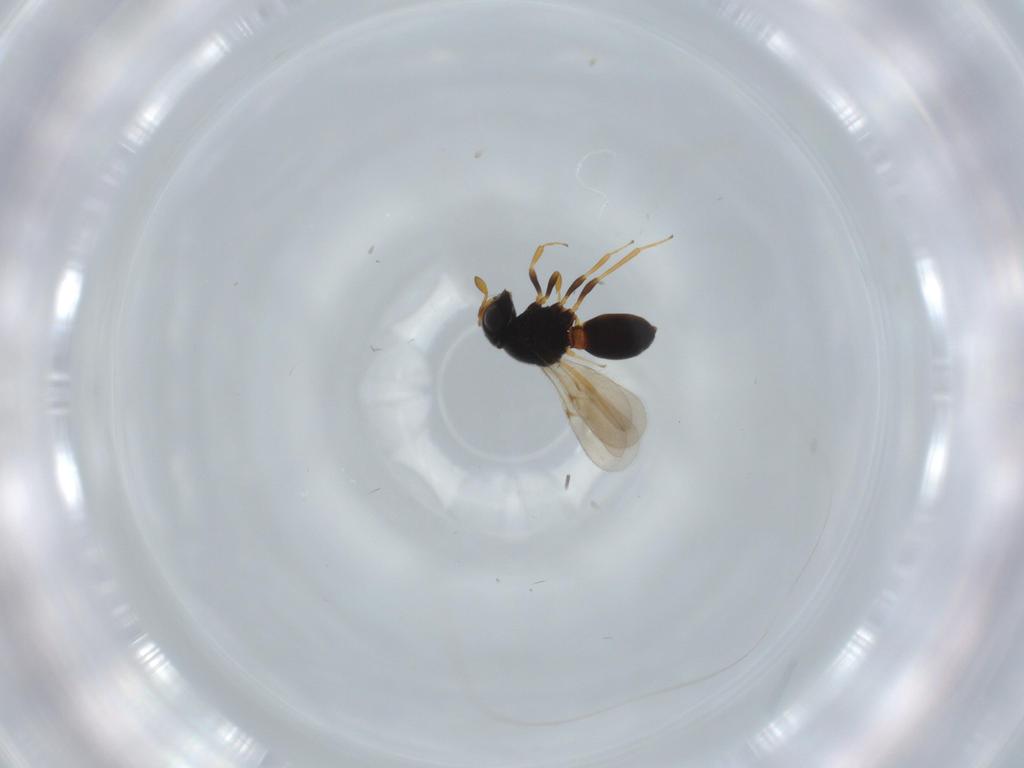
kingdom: Animalia
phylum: Arthropoda
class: Insecta
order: Hymenoptera
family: Scelionidae
